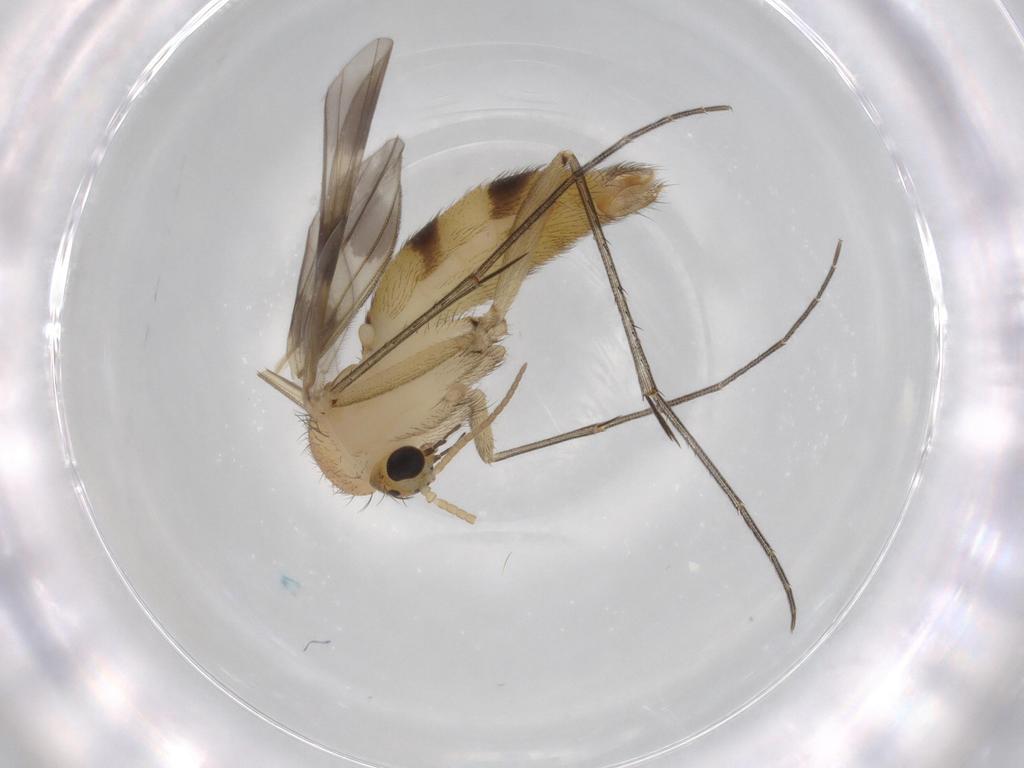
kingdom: Animalia
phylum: Arthropoda
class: Insecta
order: Diptera
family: Mycetophilidae
